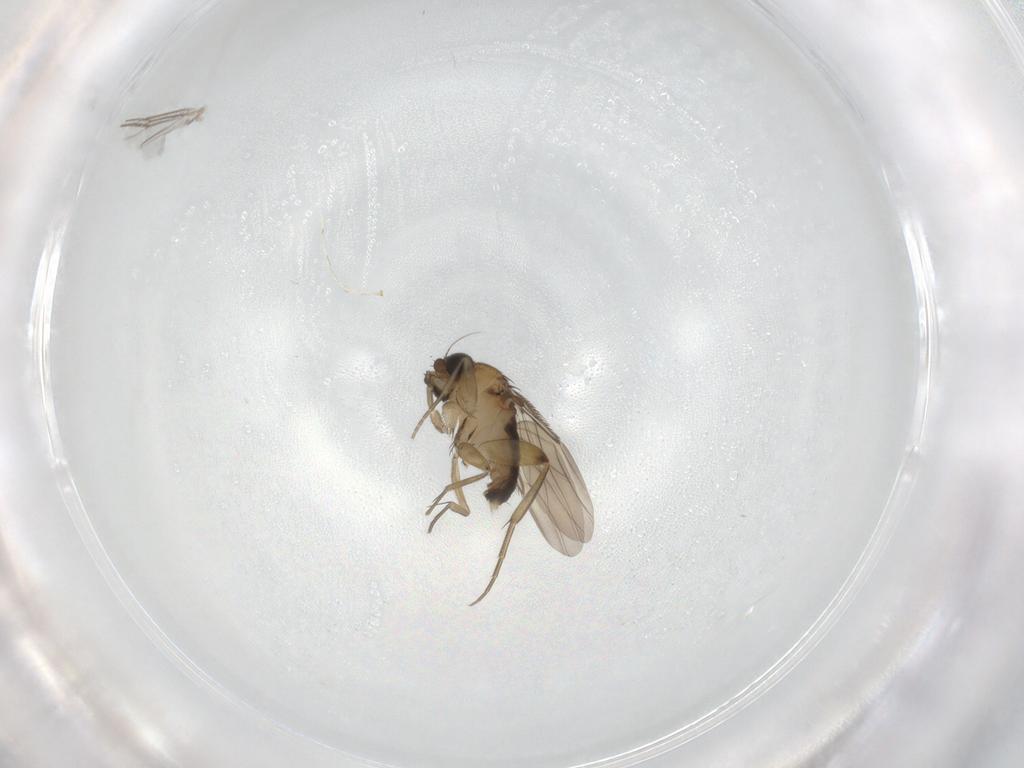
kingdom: Animalia
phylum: Arthropoda
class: Insecta
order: Diptera
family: Phoridae
